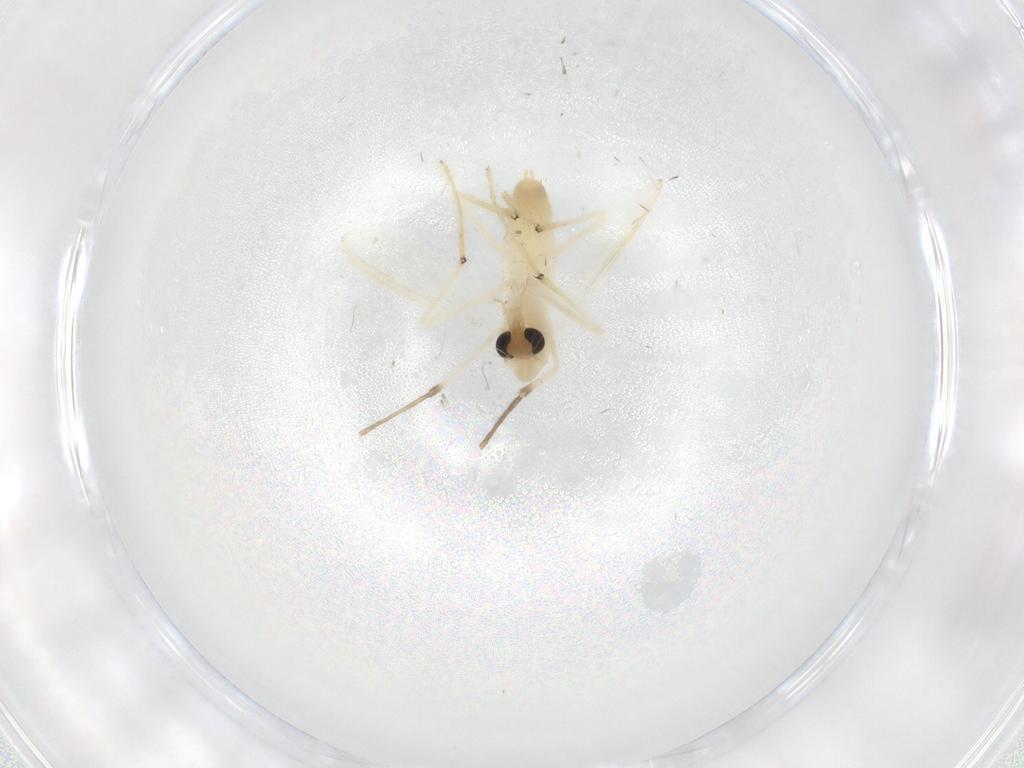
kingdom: Animalia
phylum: Arthropoda
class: Insecta
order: Diptera
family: Chironomidae
